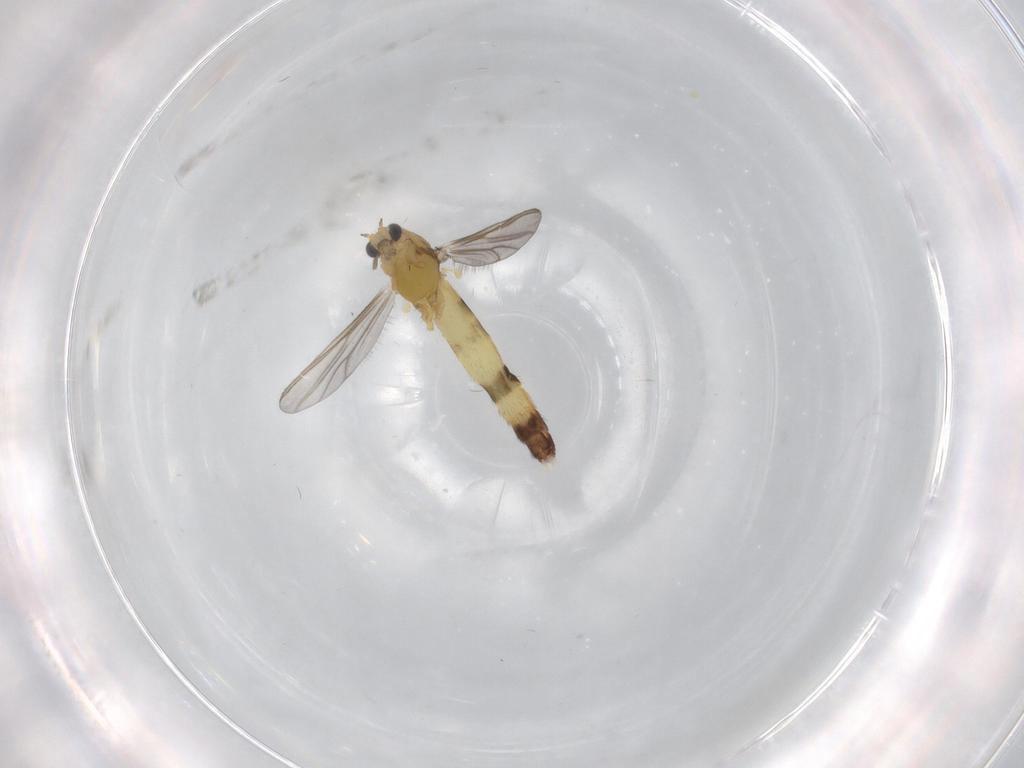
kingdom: Animalia
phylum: Arthropoda
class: Insecta
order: Diptera
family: Chironomidae
